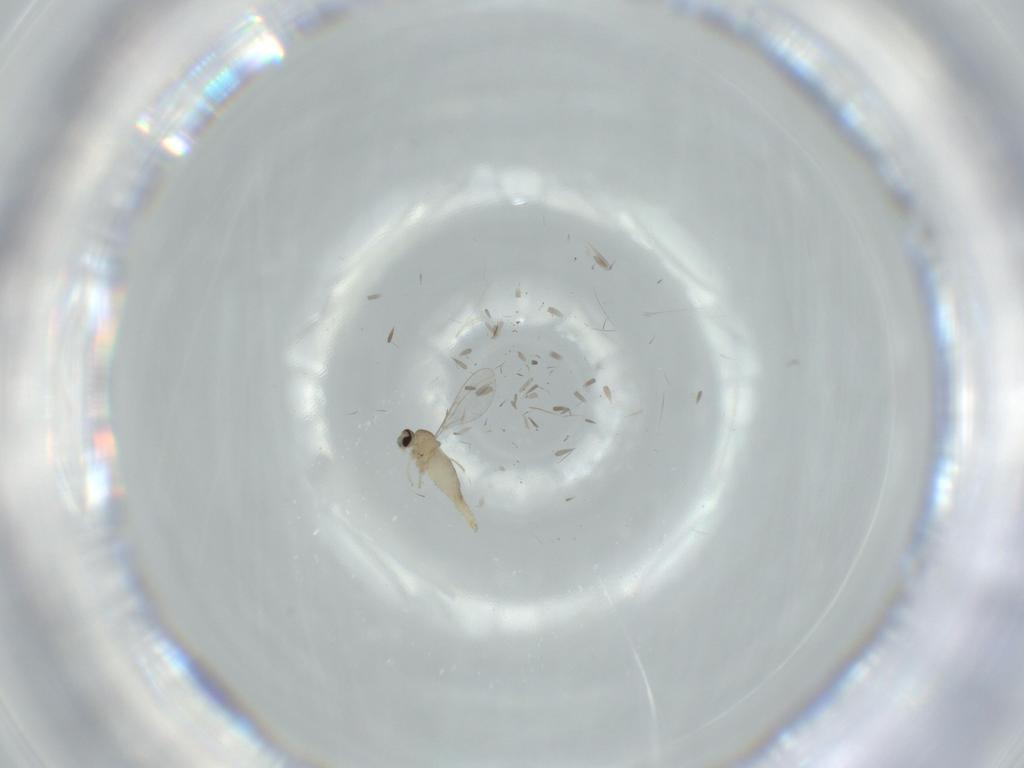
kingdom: Animalia
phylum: Arthropoda
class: Insecta
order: Diptera
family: Cecidomyiidae
